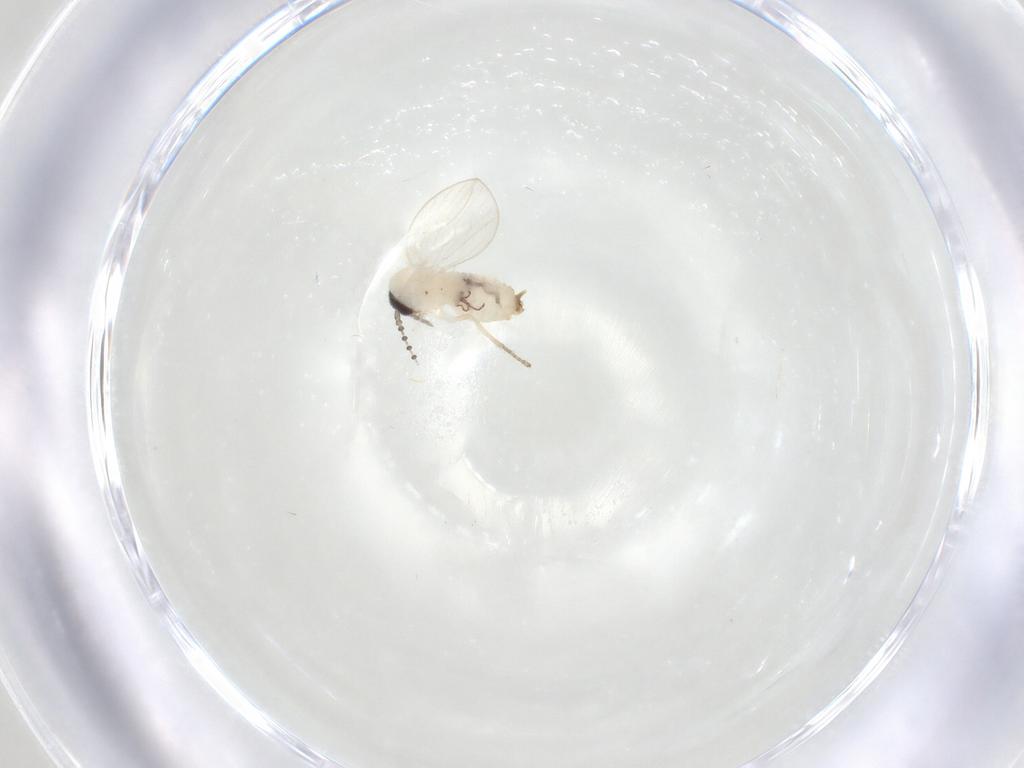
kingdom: Animalia
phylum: Arthropoda
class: Insecta
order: Diptera
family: Psychodidae
